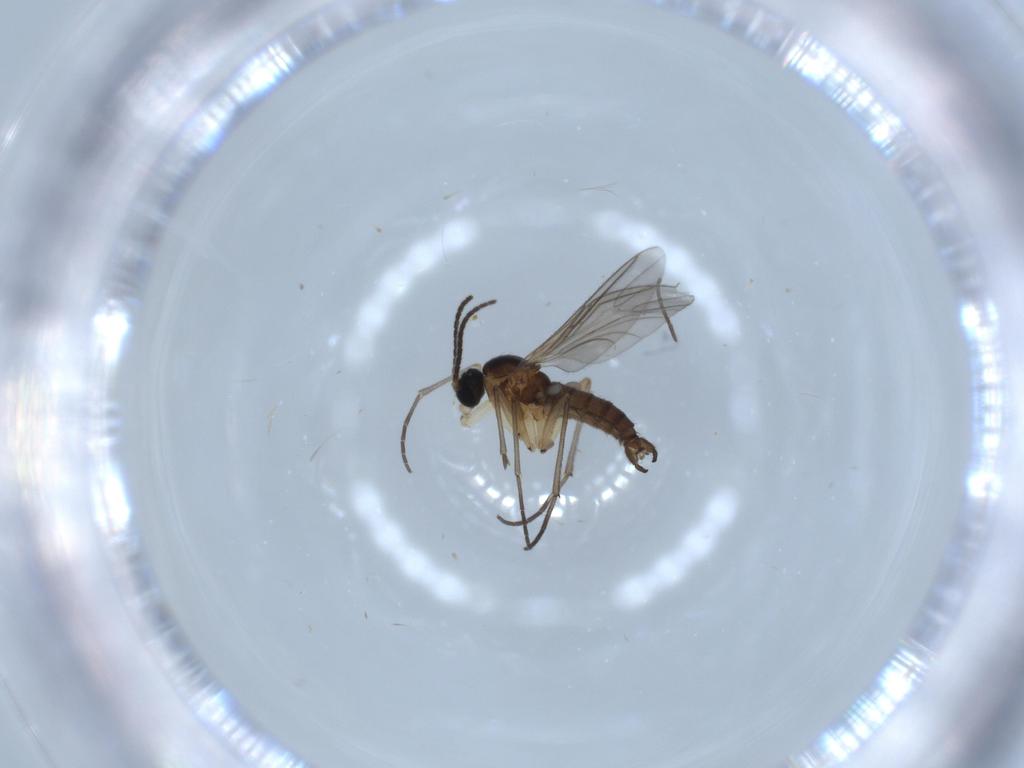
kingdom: Animalia
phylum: Arthropoda
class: Insecta
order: Diptera
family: Sciaridae
